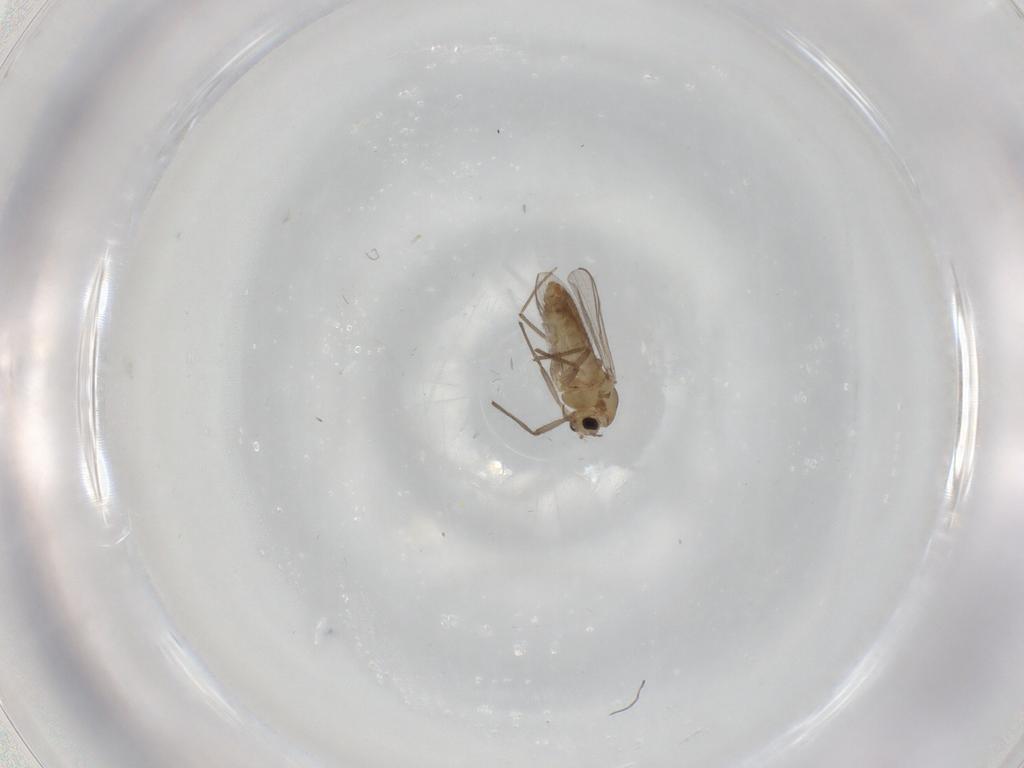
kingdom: Animalia
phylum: Arthropoda
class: Insecta
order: Diptera
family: Chironomidae
